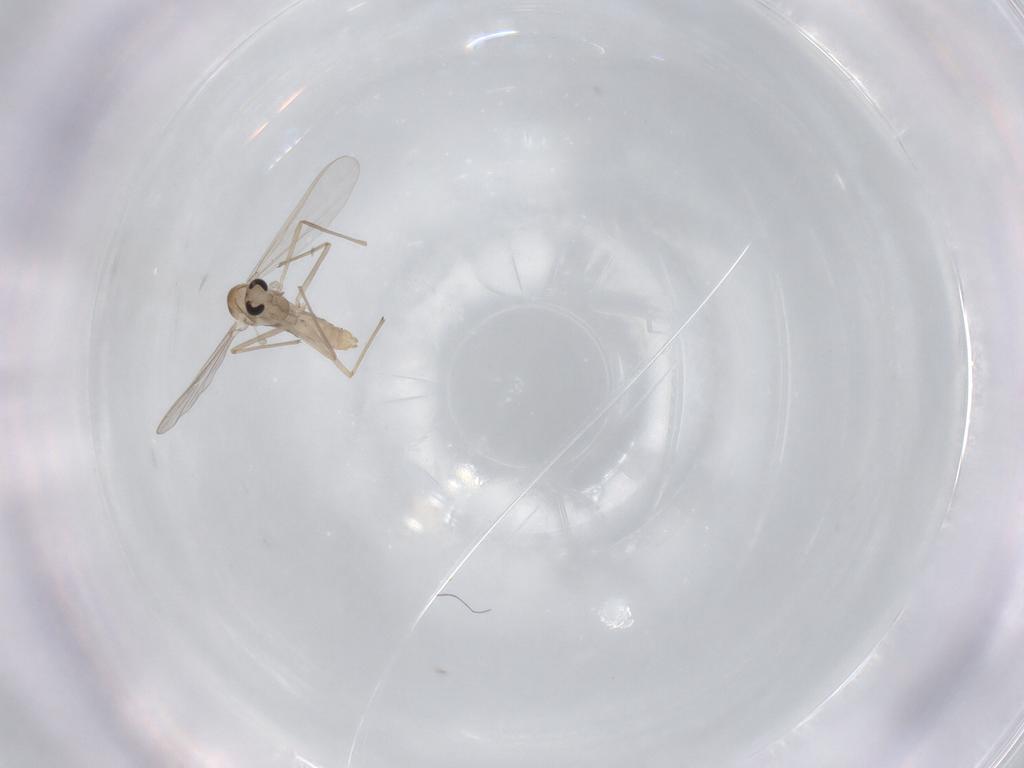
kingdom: Animalia
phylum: Arthropoda
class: Insecta
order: Diptera
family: Chironomidae
